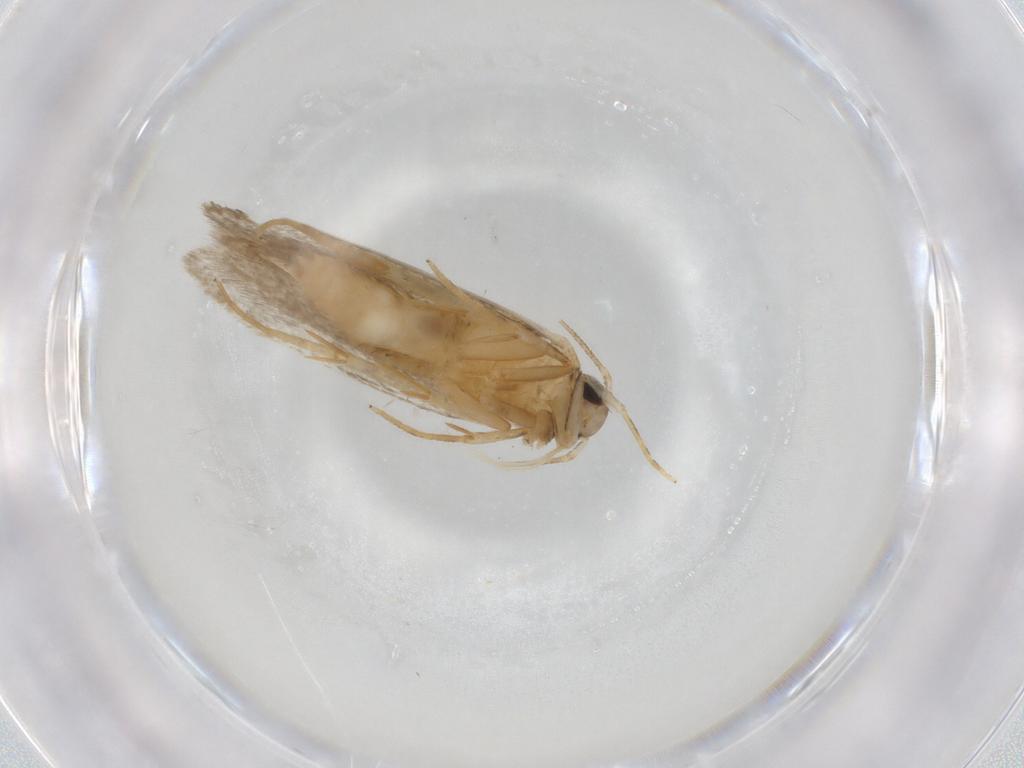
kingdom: Animalia
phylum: Arthropoda
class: Insecta
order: Lepidoptera
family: Autostichidae
